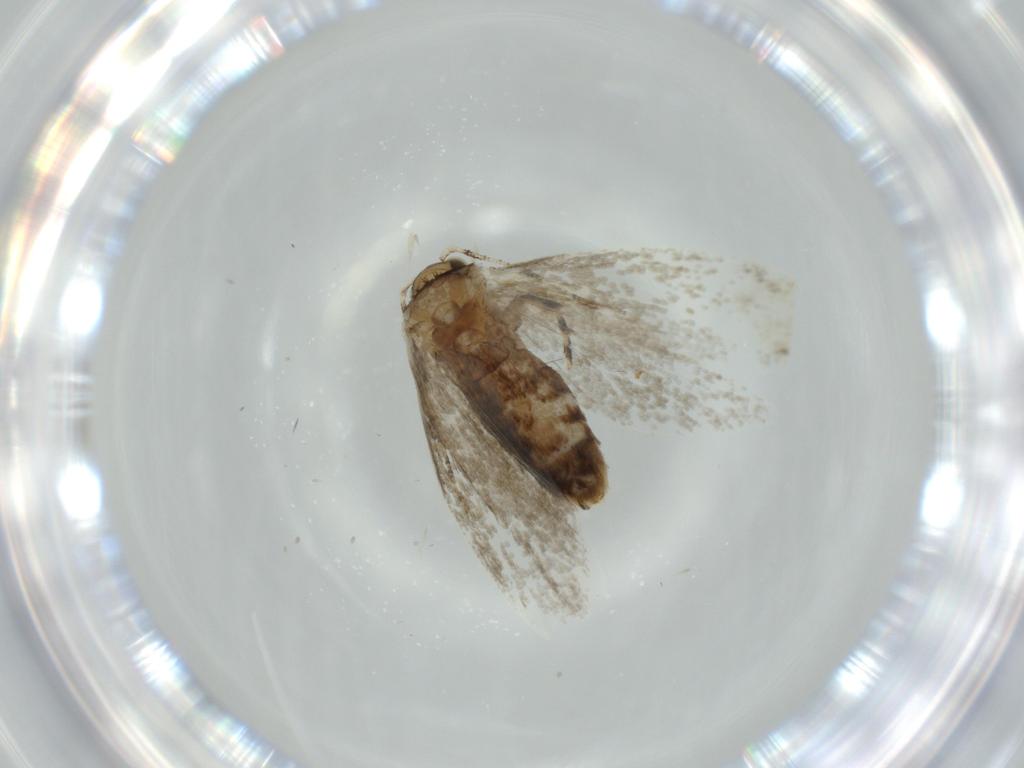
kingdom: Animalia
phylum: Arthropoda
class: Insecta
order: Lepidoptera
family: Tineidae
